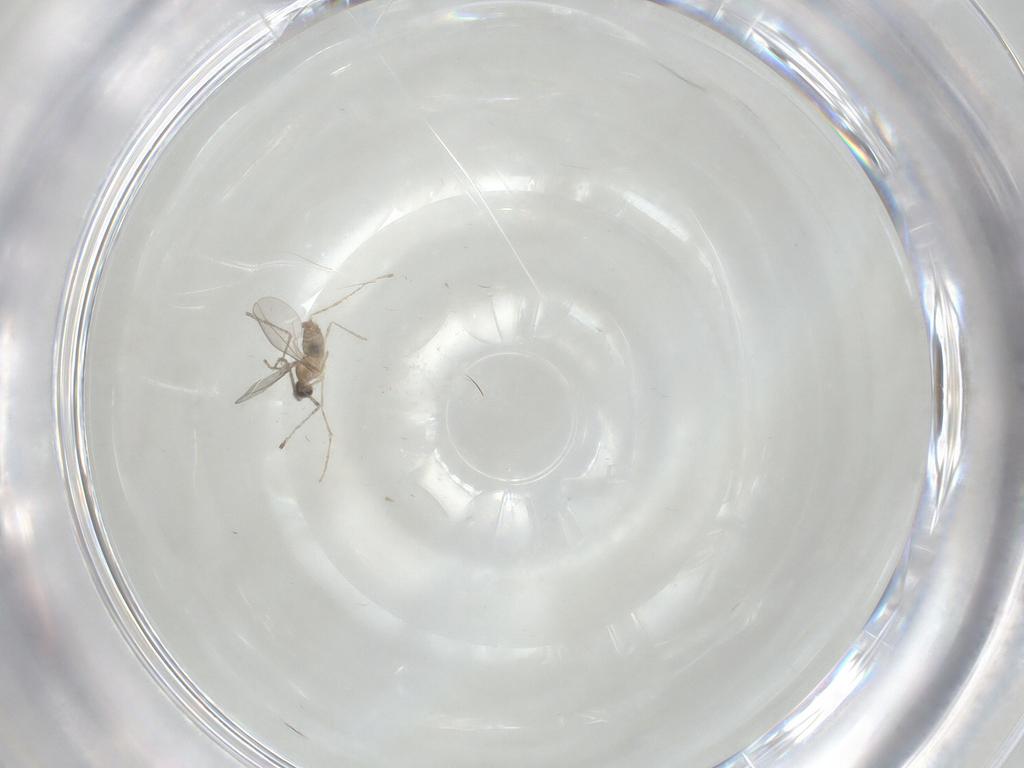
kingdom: Animalia
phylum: Arthropoda
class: Insecta
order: Diptera
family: Cecidomyiidae
